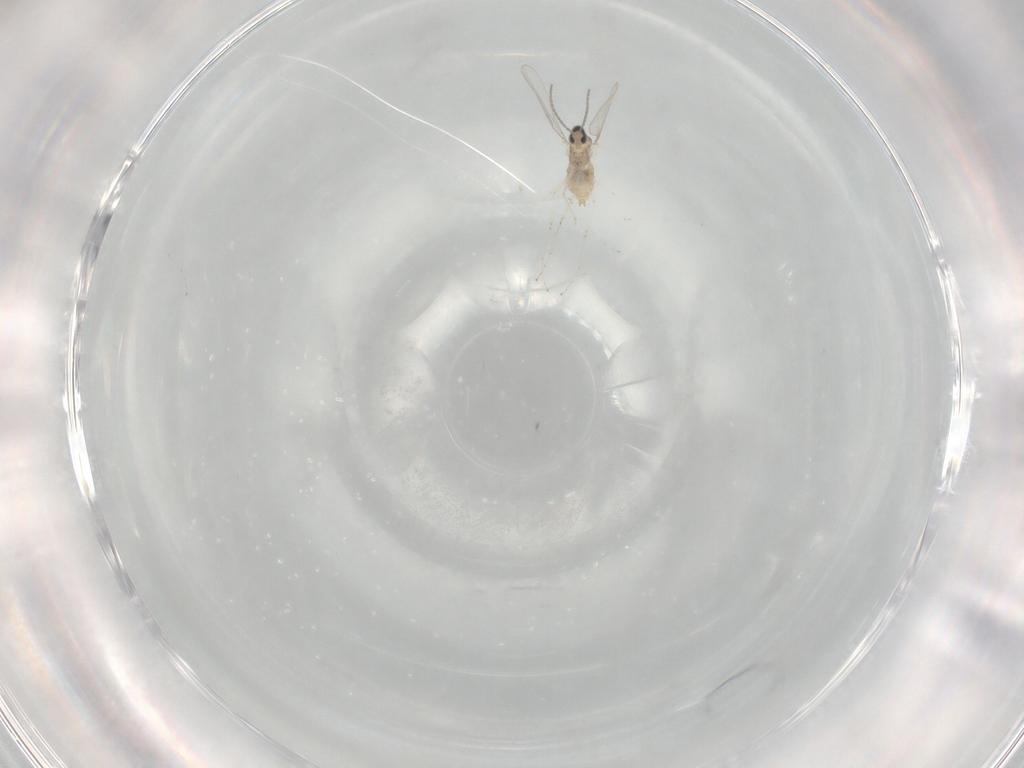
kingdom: Animalia
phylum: Arthropoda
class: Insecta
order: Diptera
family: Cecidomyiidae
